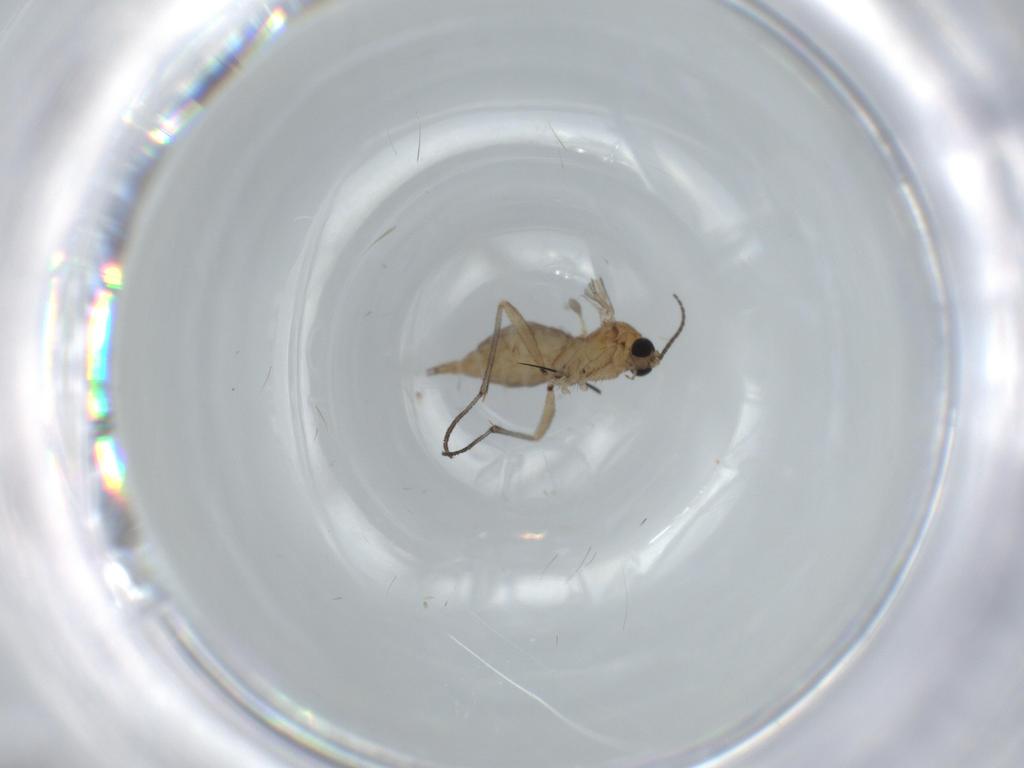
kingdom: Animalia
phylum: Arthropoda
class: Insecta
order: Diptera
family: Sciaridae
